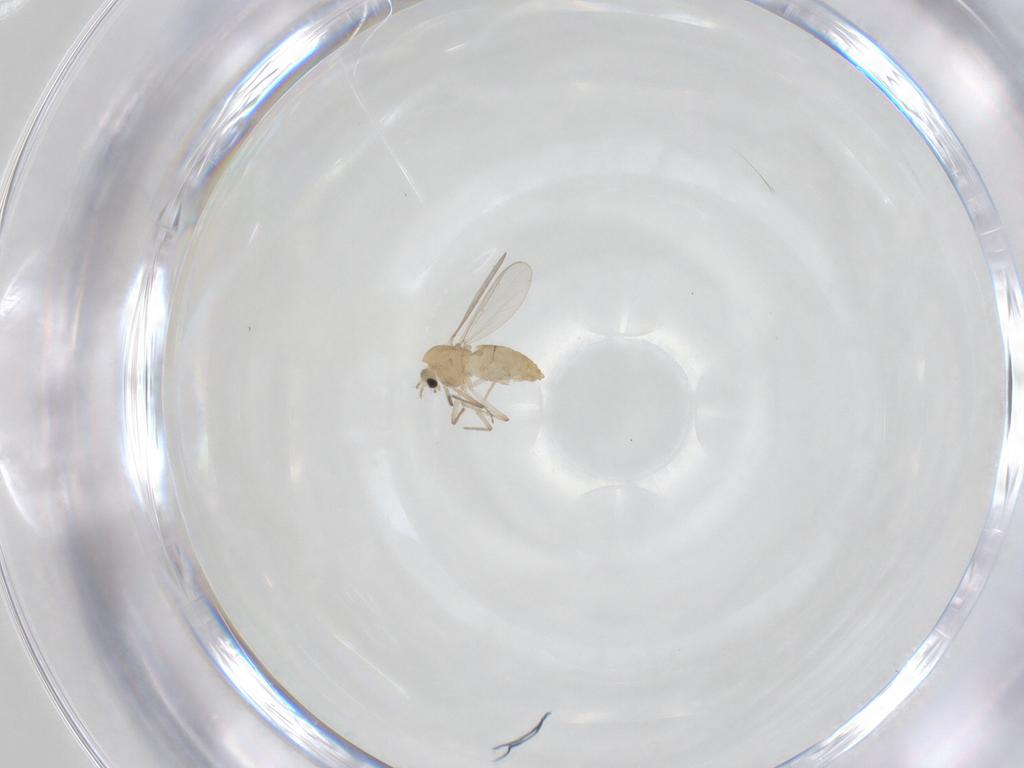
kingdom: Animalia
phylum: Arthropoda
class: Insecta
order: Diptera
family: Chironomidae
